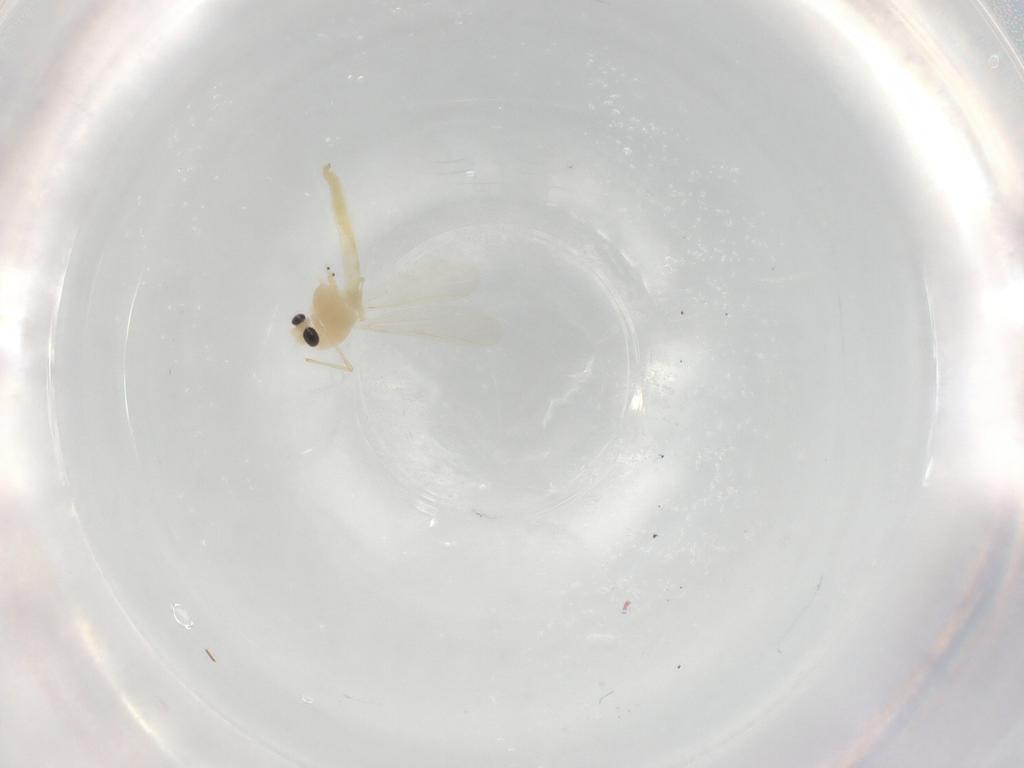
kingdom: Animalia
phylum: Arthropoda
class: Insecta
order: Diptera
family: Chironomidae
